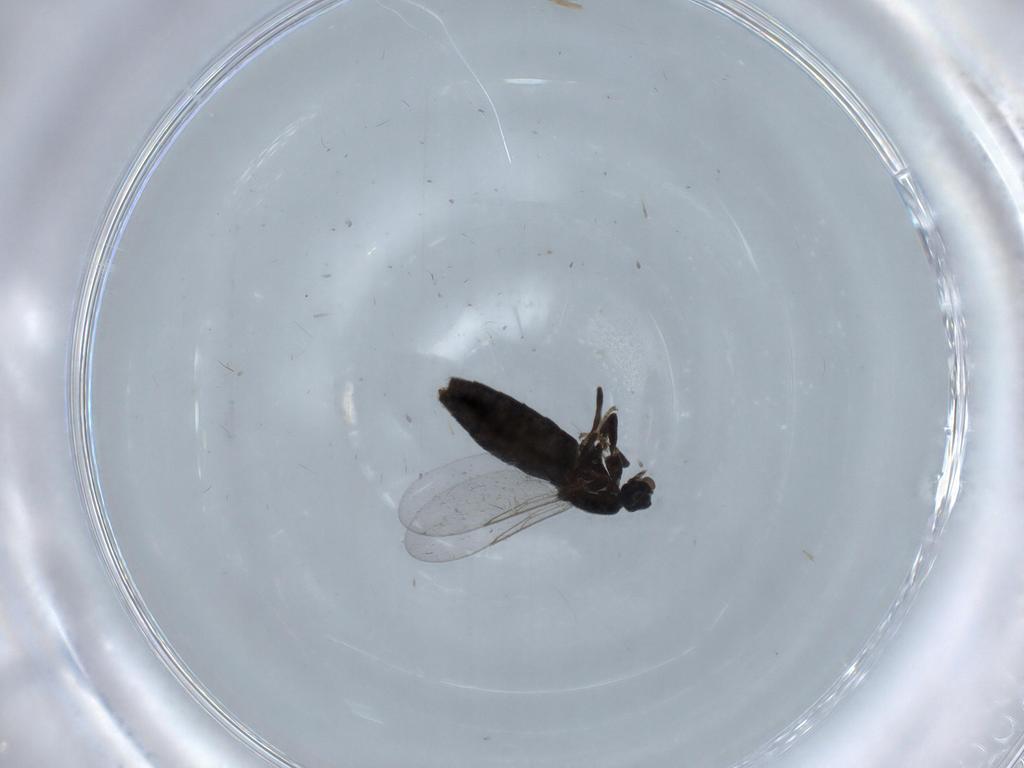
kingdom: Animalia
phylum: Arthropoda
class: Insecta
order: Diptera
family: Scatopsidae
